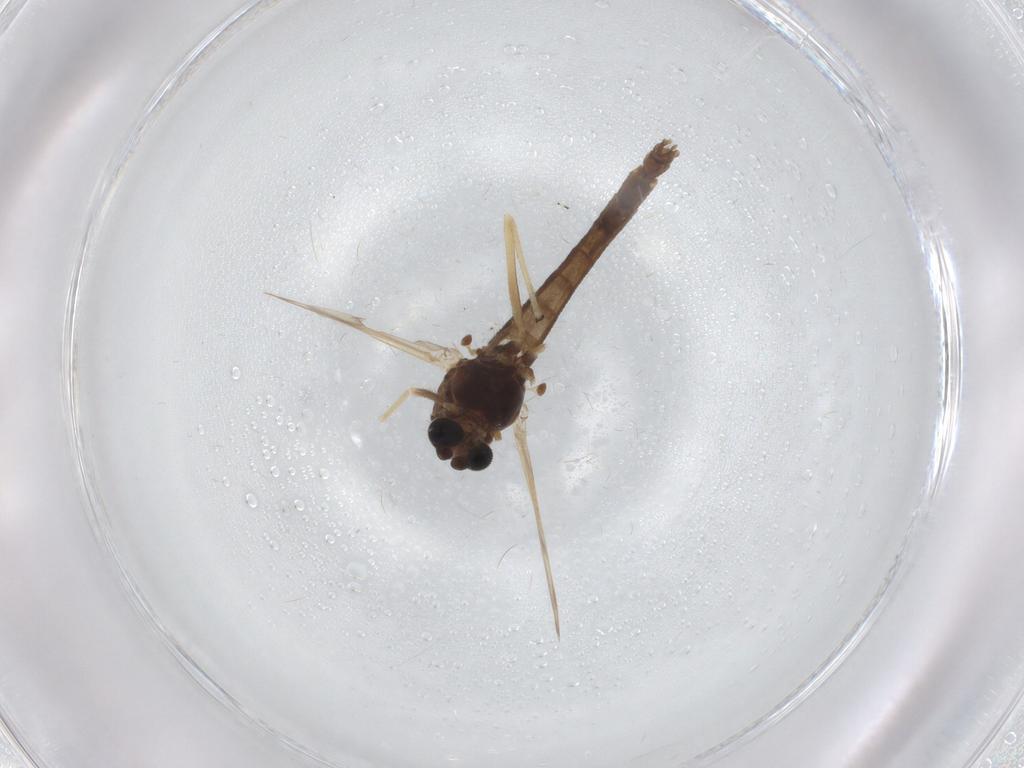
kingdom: Animalia
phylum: Arthropoda
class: Insecta
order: Diptera
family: Chironomidae
